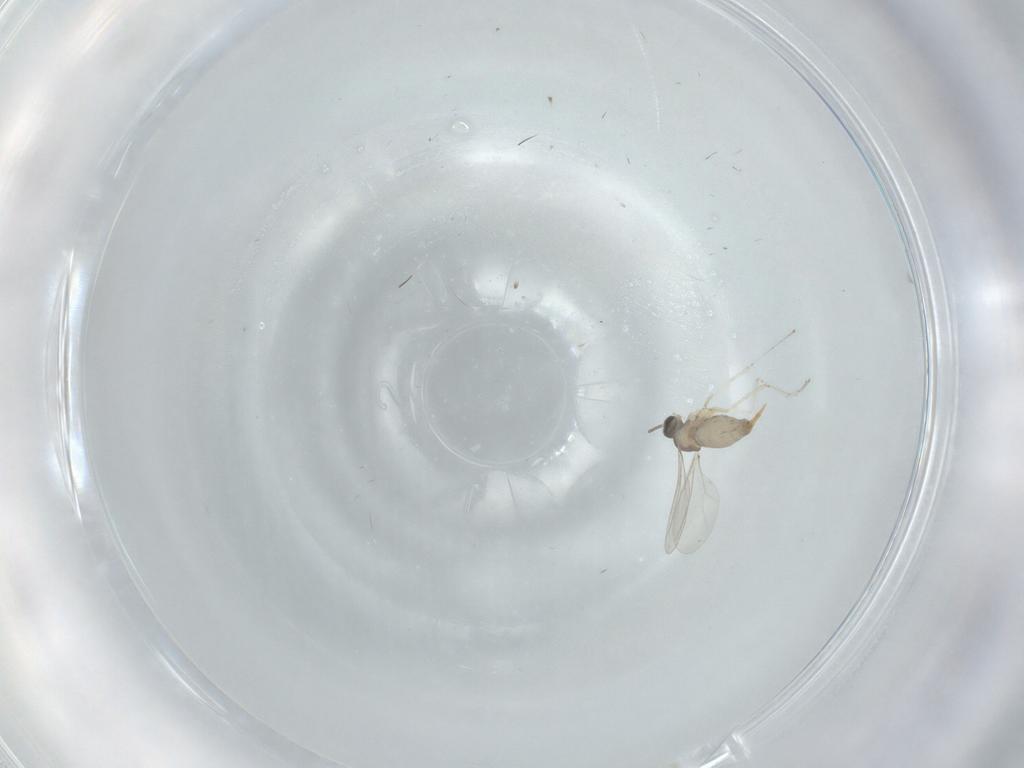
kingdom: Animalia
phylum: Arthropoda
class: Insecta
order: Diptera
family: Cecidomyiidae
